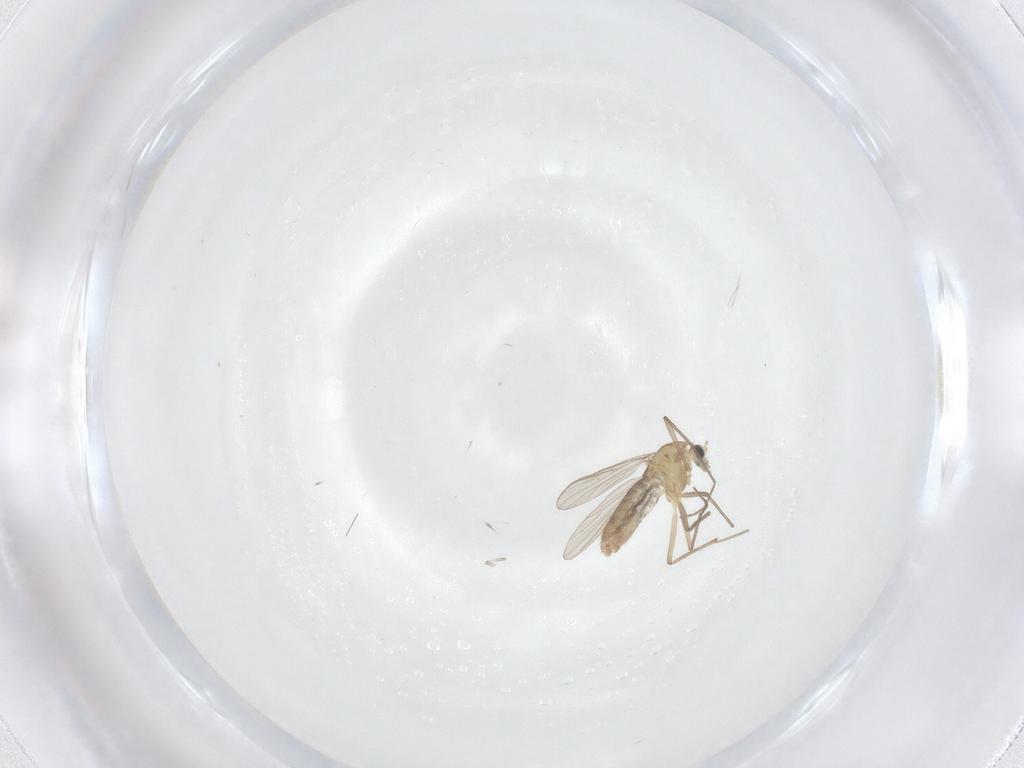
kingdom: Animalia
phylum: Arthropoda
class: Insecta
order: Diptera
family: Chironomidae
